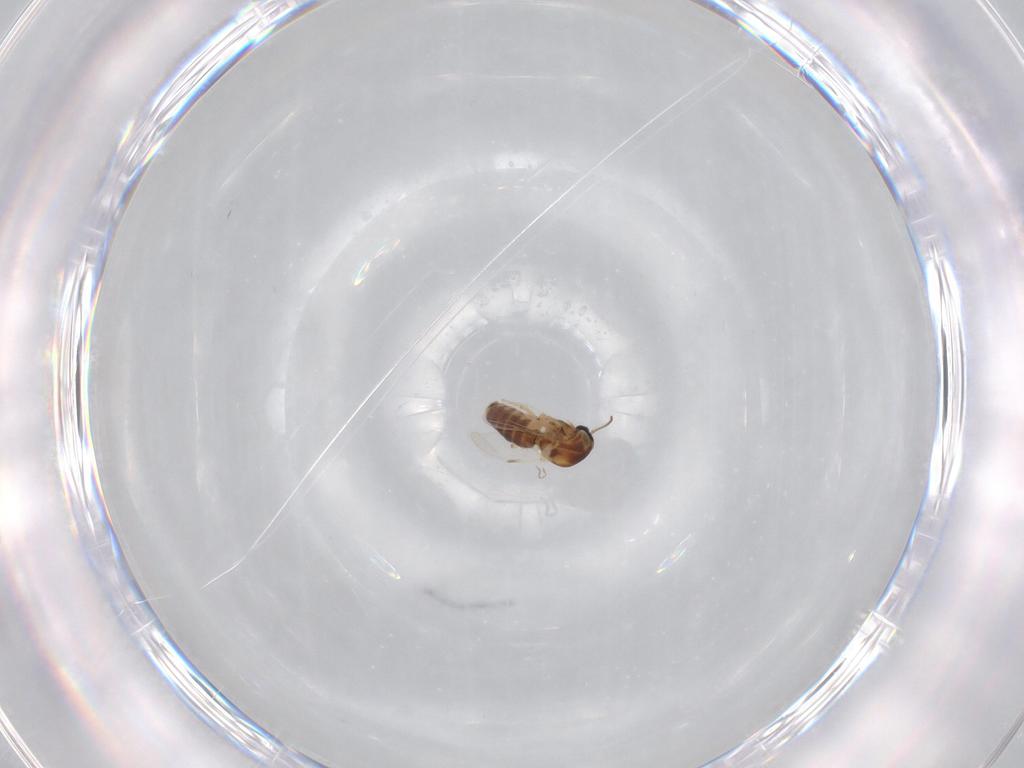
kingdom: Animalia
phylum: Arthropoda
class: Insecta
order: Diptera
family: Ceratopogonidae
